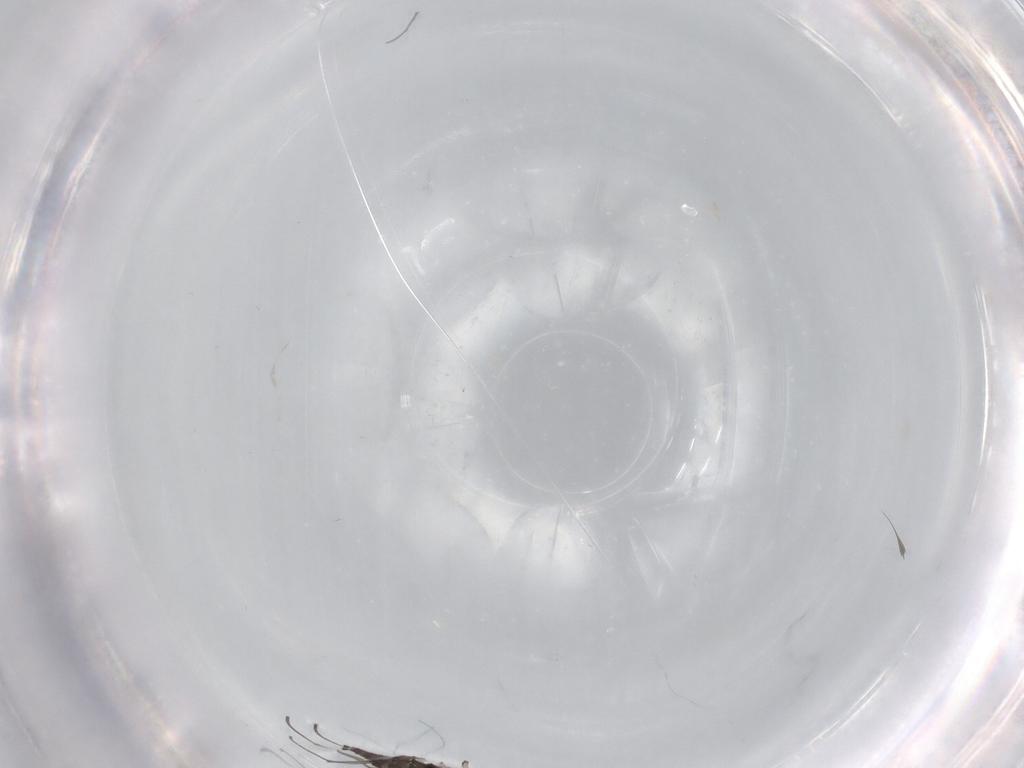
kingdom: Animalia
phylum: Arthropoda
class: Insecta
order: Diptera
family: Sciaridae
